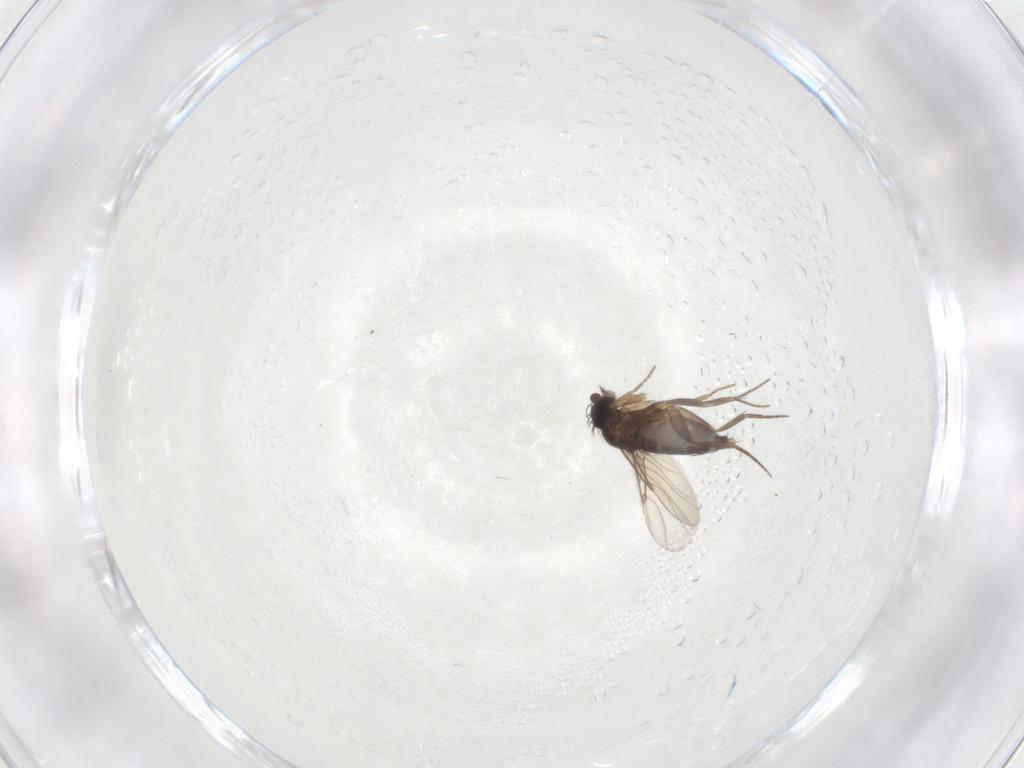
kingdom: Animalia
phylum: Arthropoda
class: Insecta
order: Diptera
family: Phoridae
